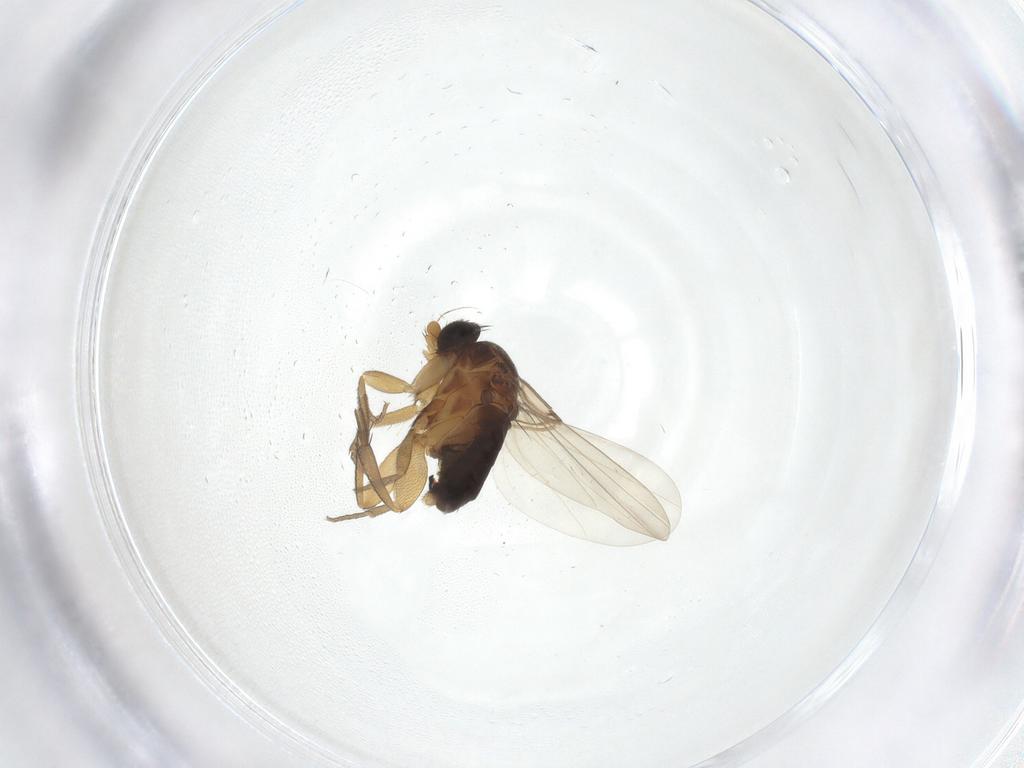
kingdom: Animalia
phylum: Arthropoda
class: Insecta
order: Diptera
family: Phoridae
